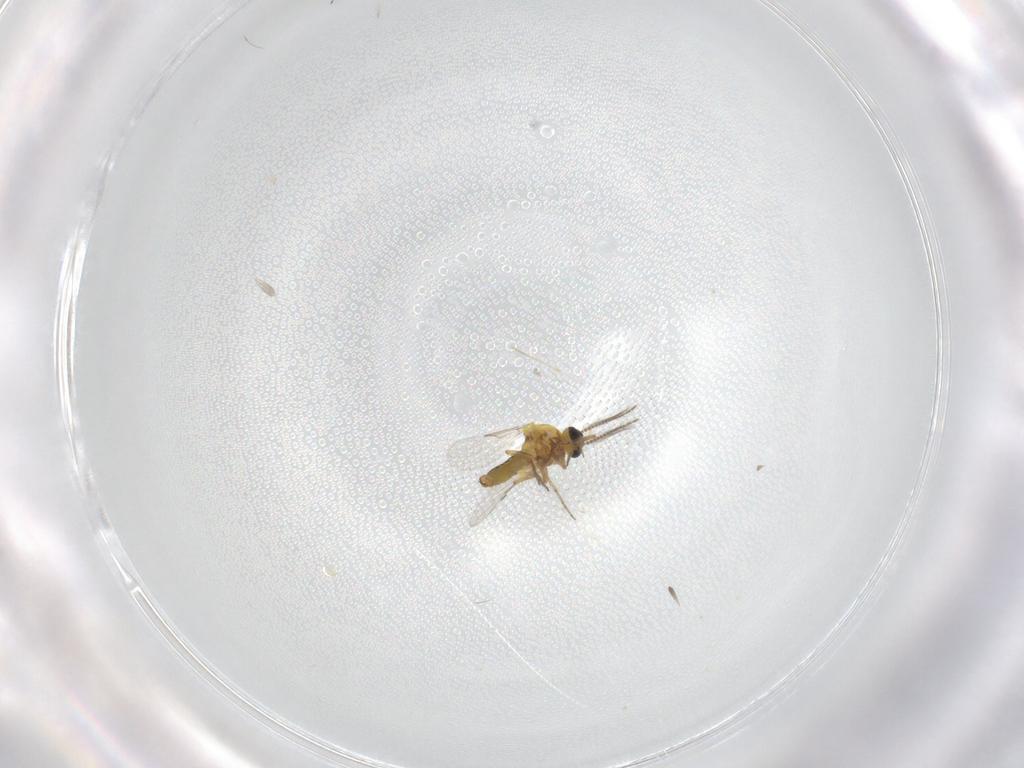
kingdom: Animalia
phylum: Arthropoda
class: Insecta
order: Diptera
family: Ceratopogonidae
